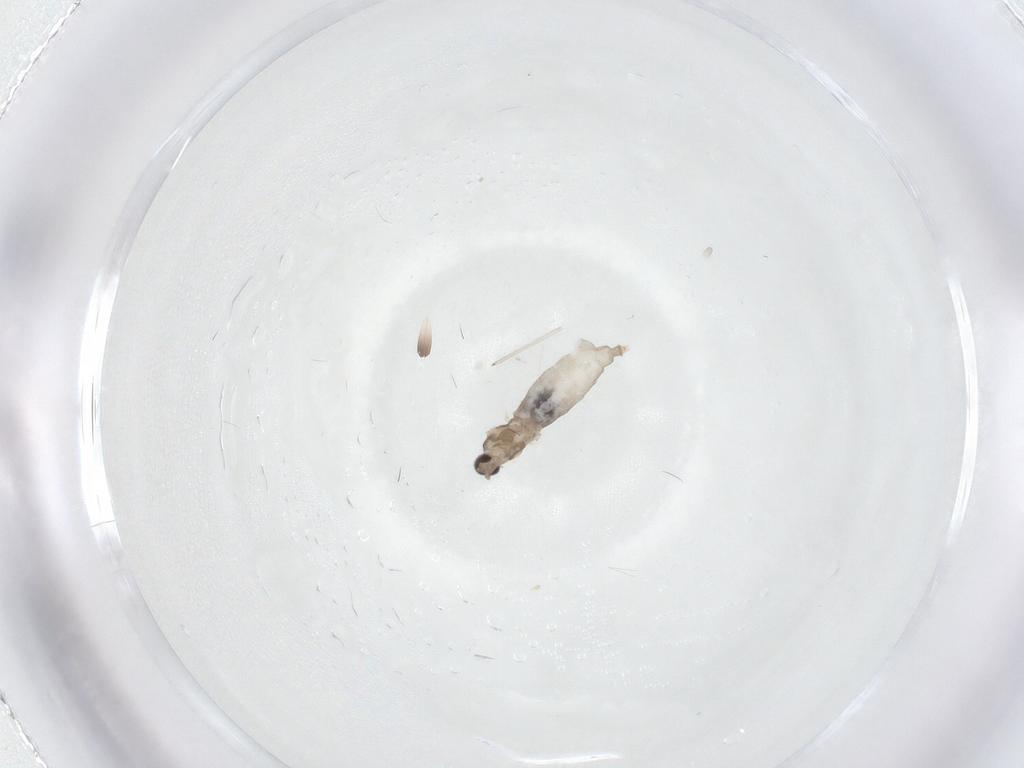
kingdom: Animalia
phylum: Arthropoda
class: Insecta
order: Diptera
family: Cecidomyiidae
